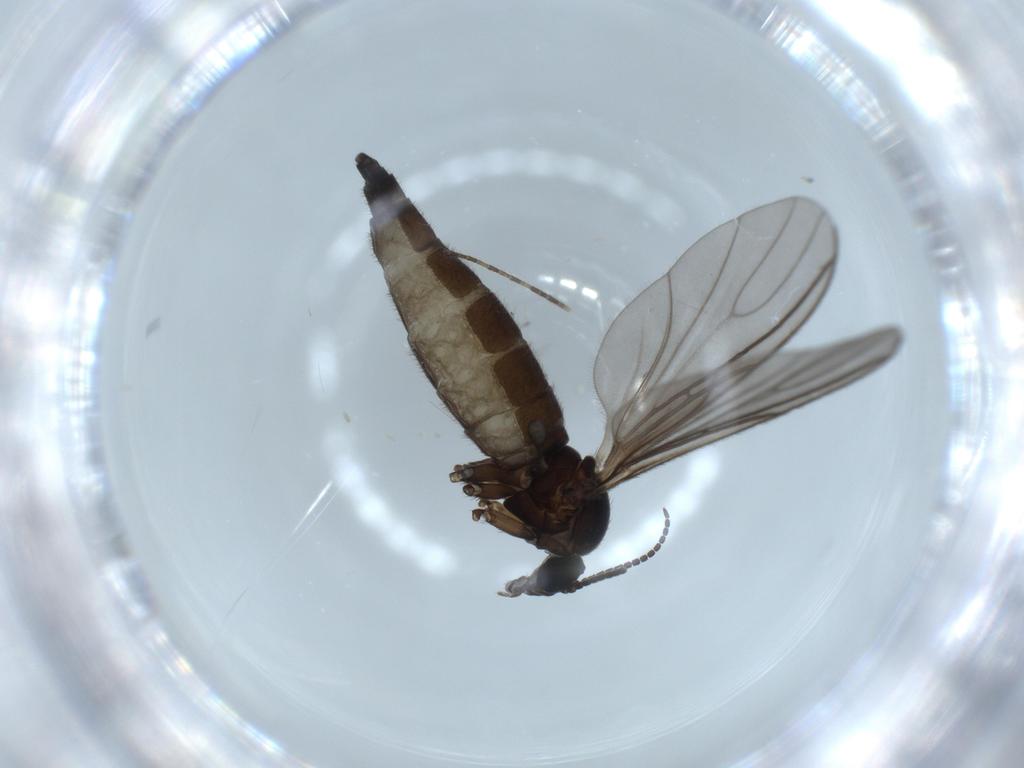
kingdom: Animalia
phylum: Arthropoda
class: Insecta
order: Diptera
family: Sciaridae
